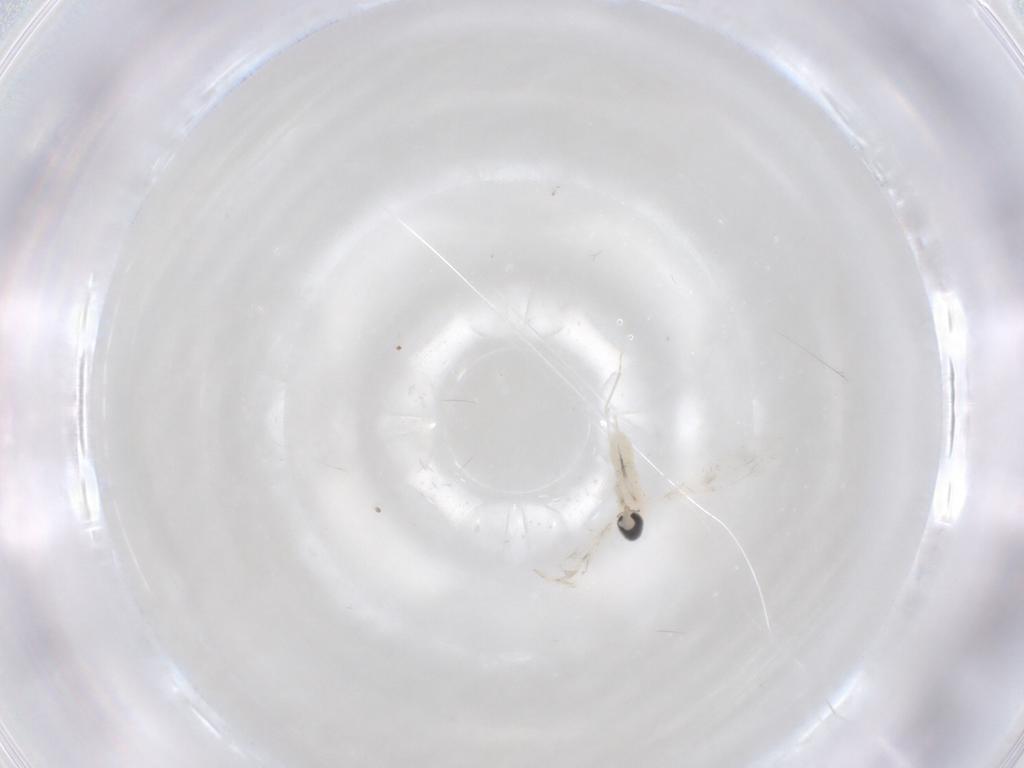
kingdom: Animalia
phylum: Arthropoda
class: Insecta
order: Diptera
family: Cecidomyiidae
